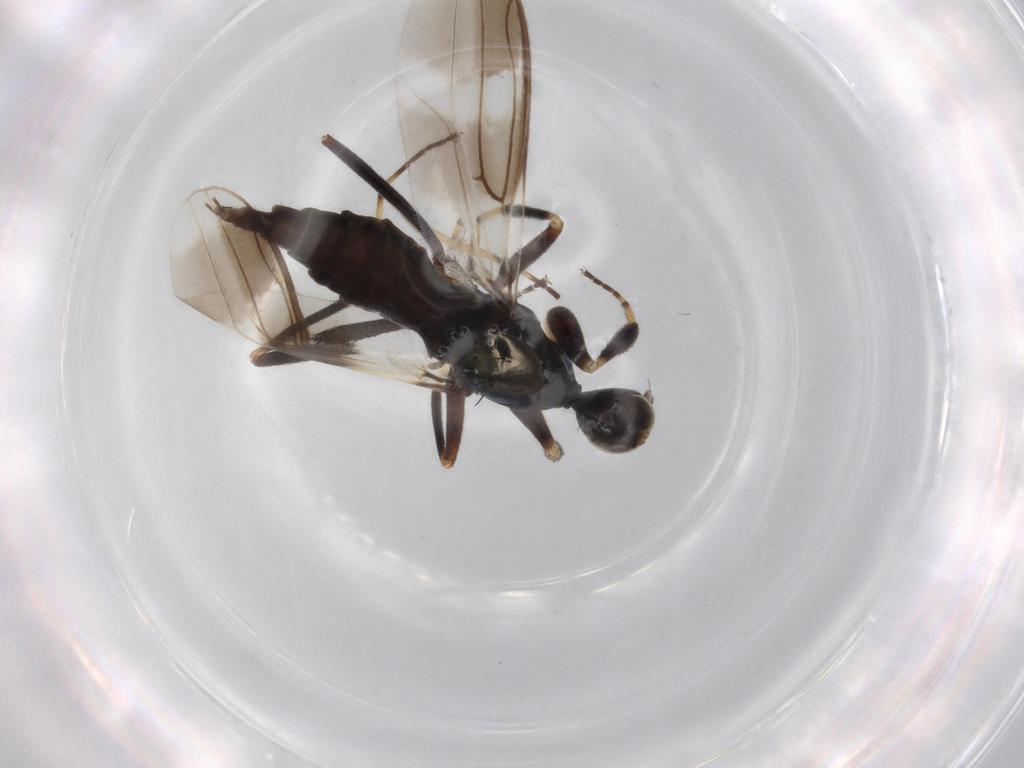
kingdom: Animalia
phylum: Arthropoda
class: Insecta
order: Diptera
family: Hybotidae
